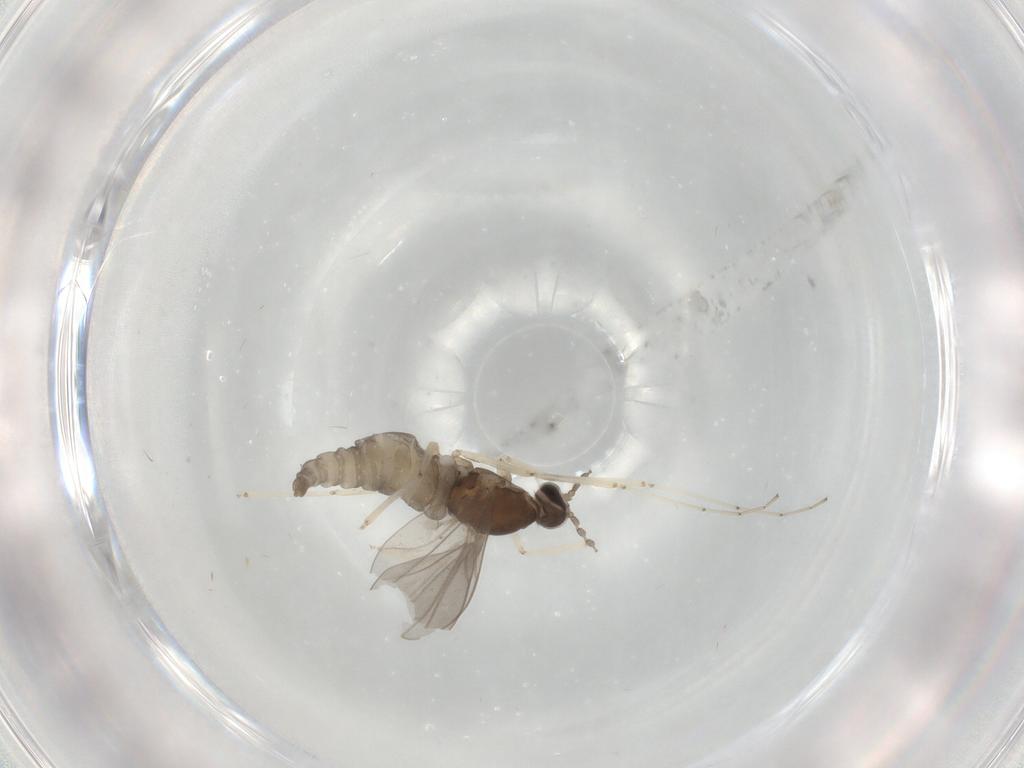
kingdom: Animalia
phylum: Arthropoda
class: Insecta
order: Diptera
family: Cecidomyiidae
